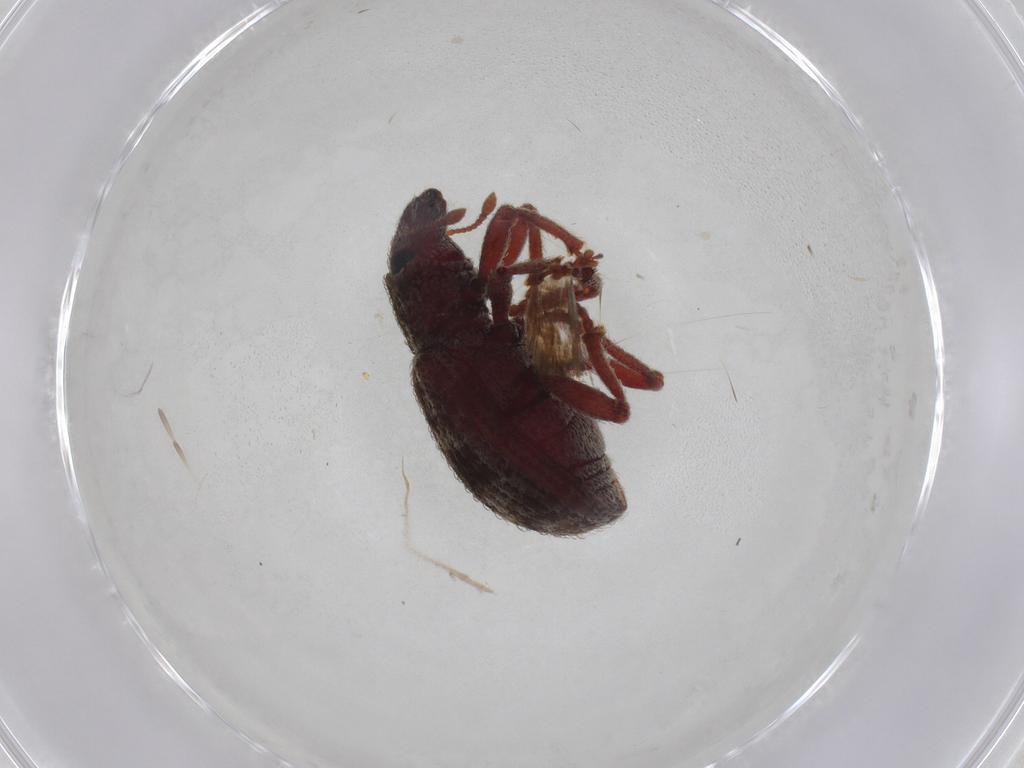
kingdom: Animalia
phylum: Arthropoda
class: Insecta
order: Coleoptera
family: Curculionidae
